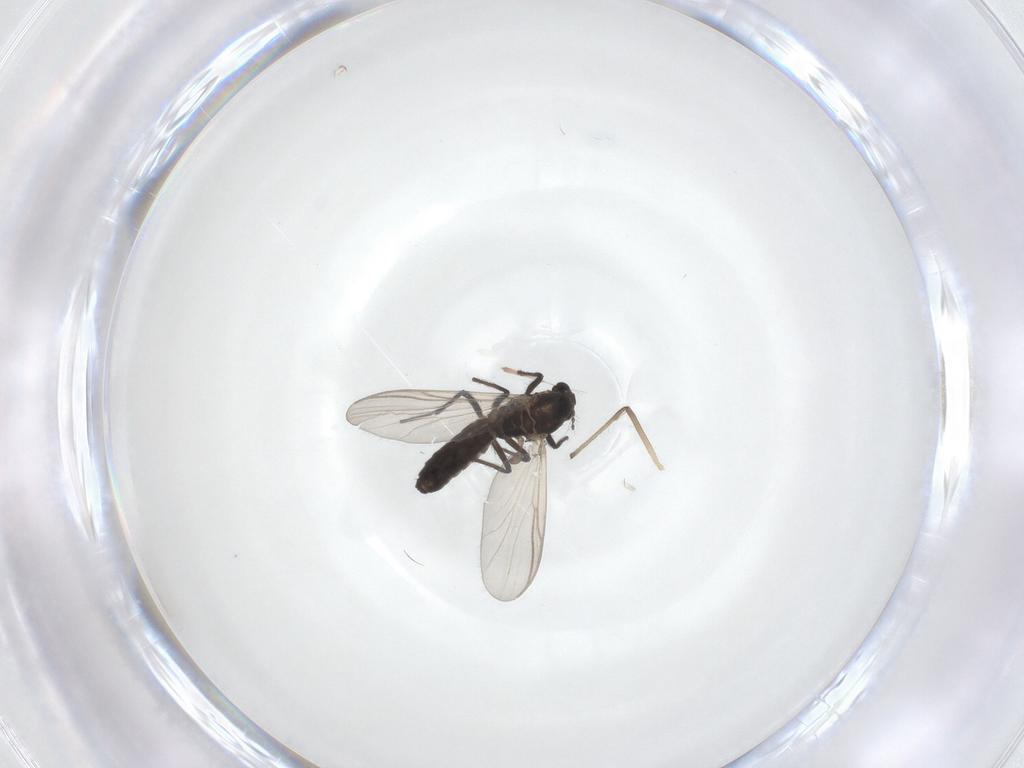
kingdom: Animalia
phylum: Arthropoda
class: Insecta
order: Diptera
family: Chironomidae
